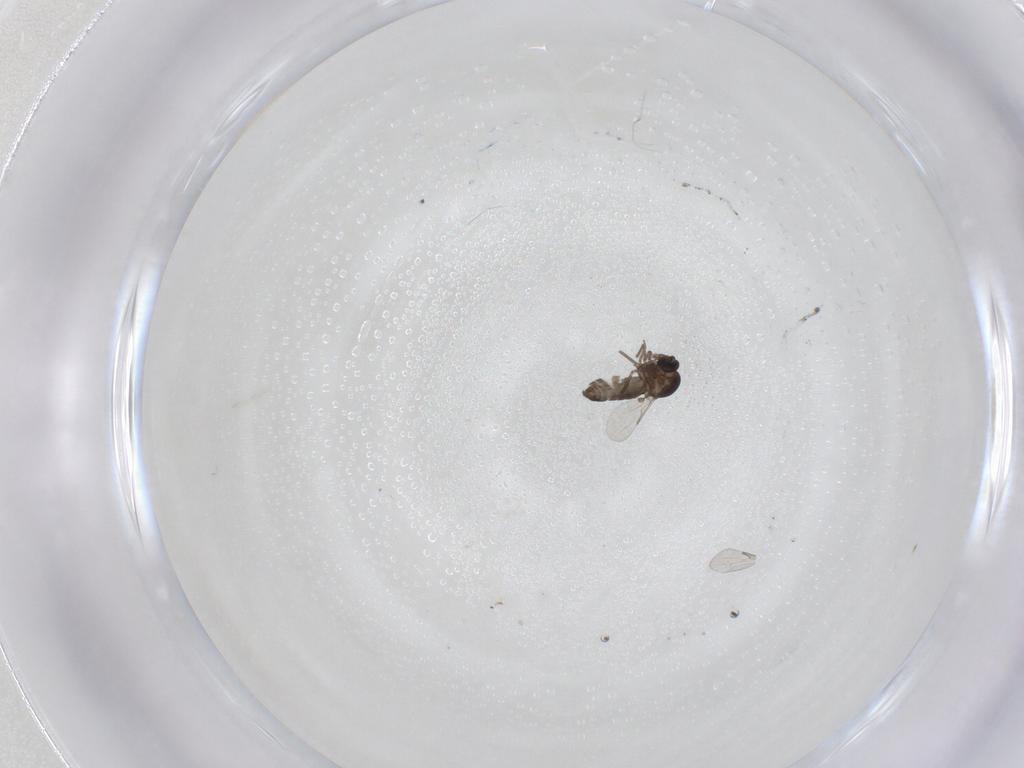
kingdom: Animalia
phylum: Arthropoda
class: Insecta
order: Diptera
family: Ceratopogonidae
